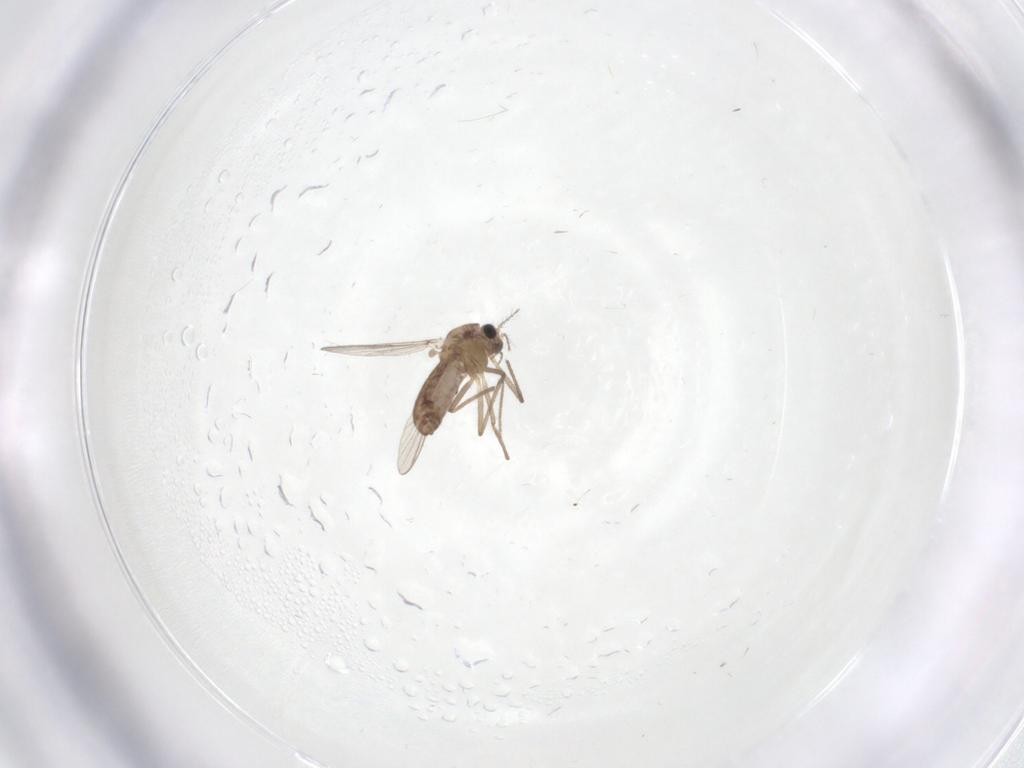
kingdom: Animalia
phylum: Arthropoda
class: Insecta
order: Diptera
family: Chironomidae
